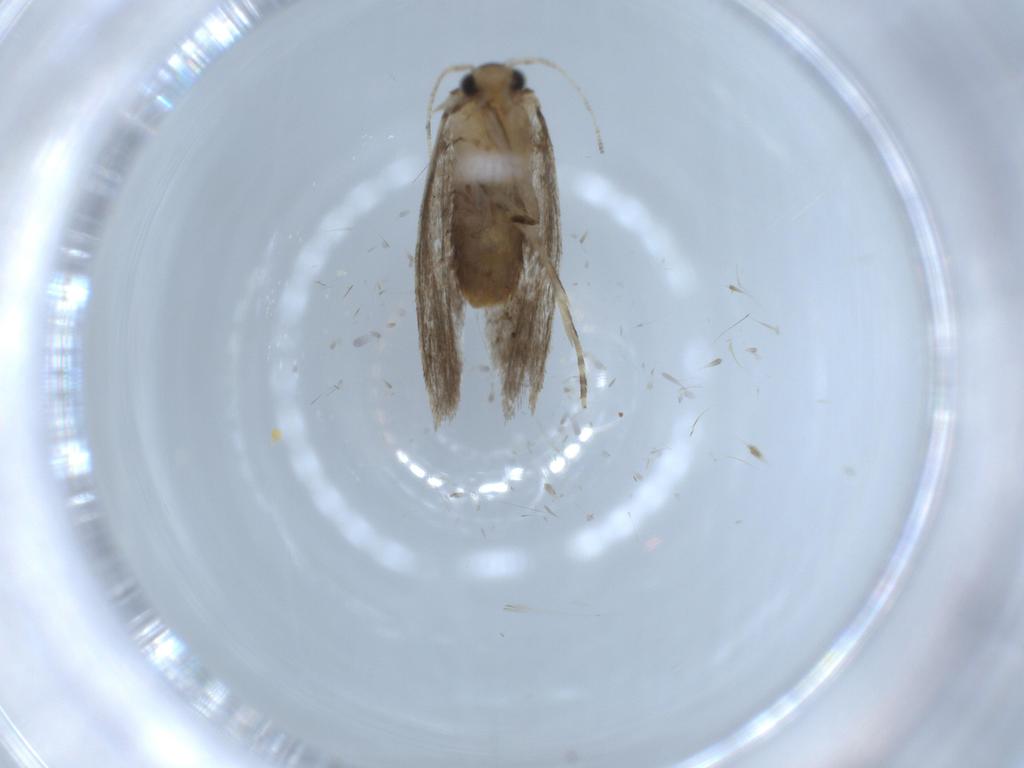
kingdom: Animalia
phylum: Arthropoda
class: Insecta
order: Lepidoptera
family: Tineidae
